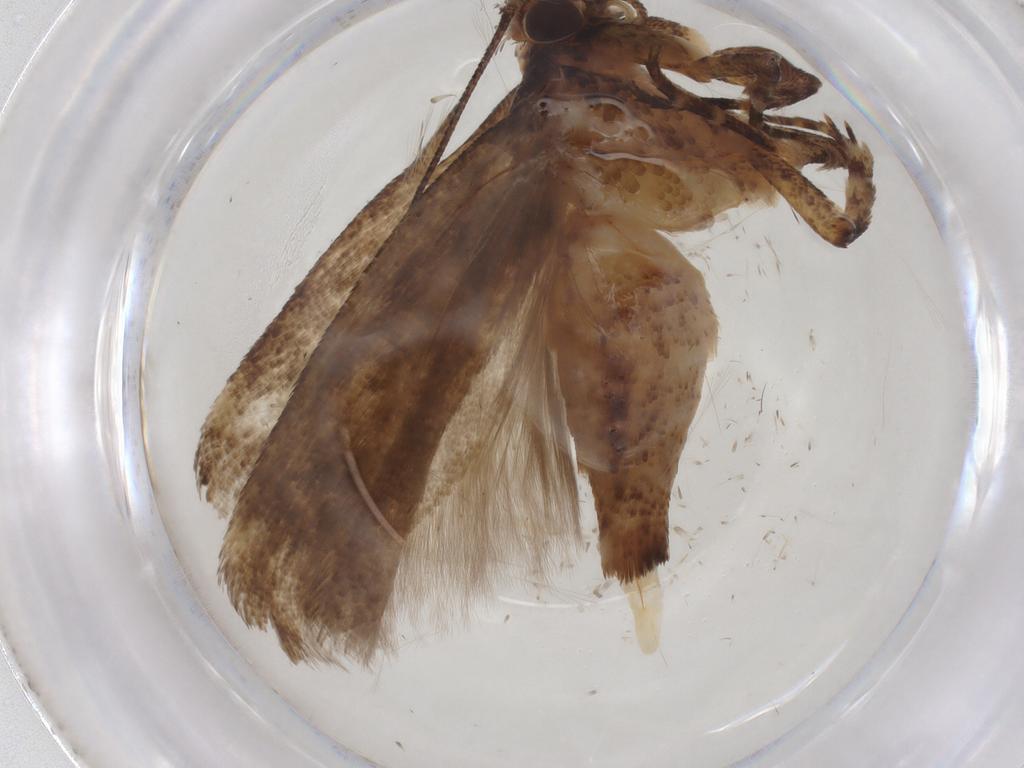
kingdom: Animalia
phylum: Arthropoda
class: Insecta
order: Lepidoptera
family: Gelechiidae
